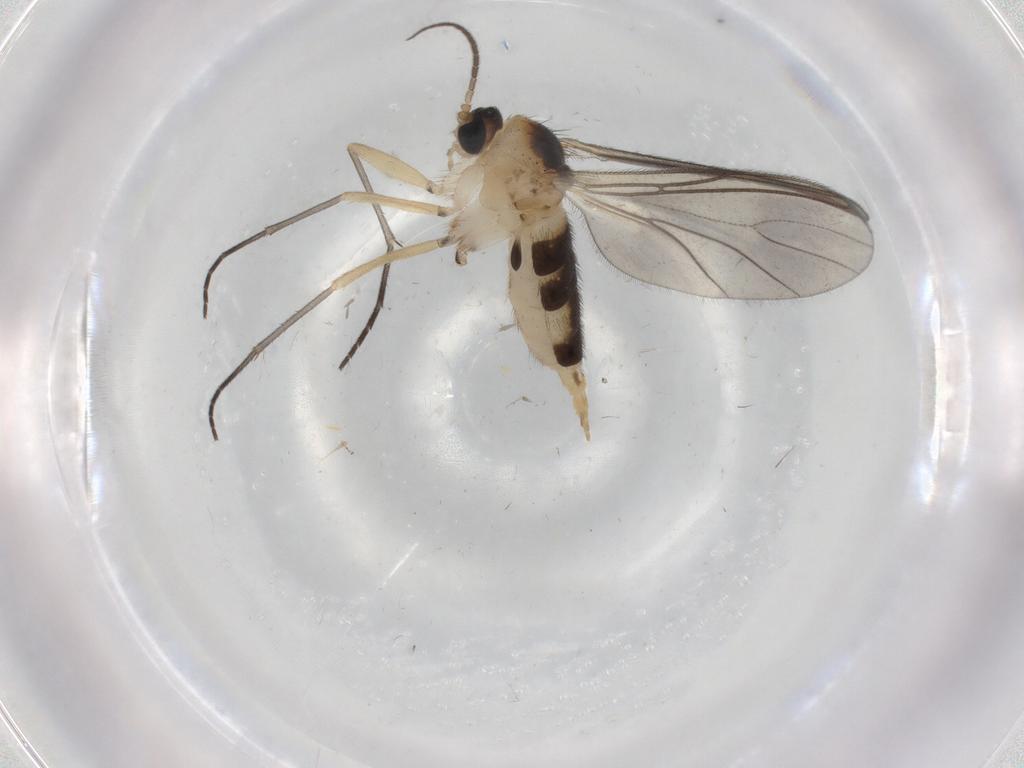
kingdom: Animalia
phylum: Arthropoda
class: Insecta
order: Diptera
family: Sciaridae
